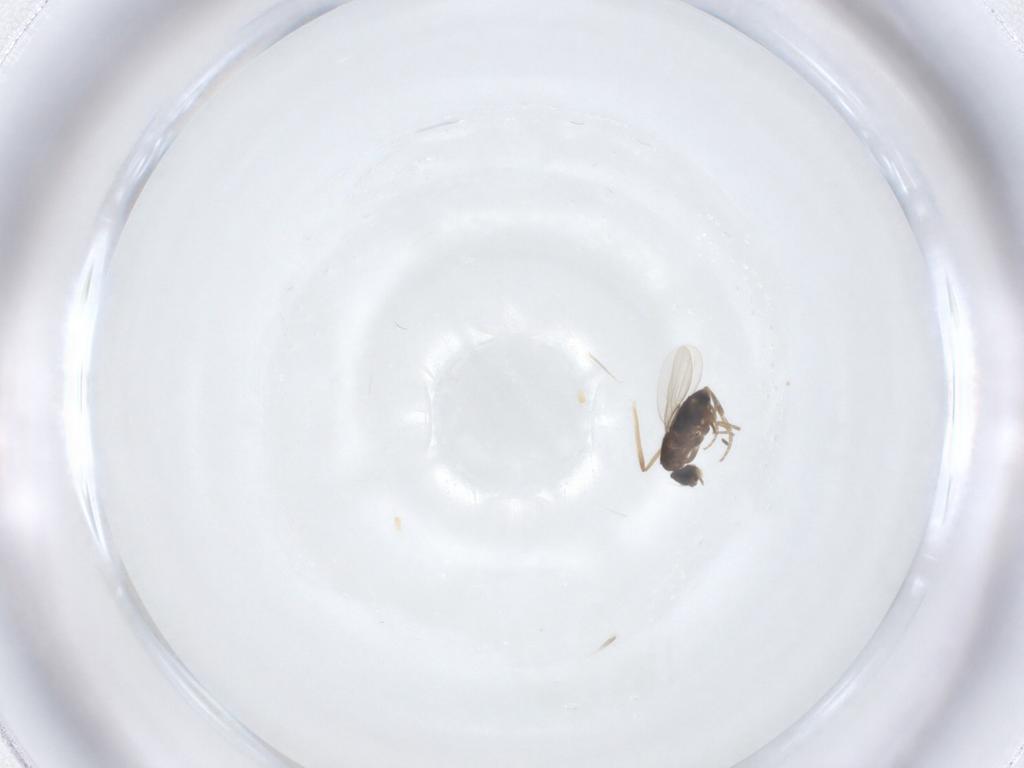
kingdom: Animalia
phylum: Arthropoda
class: Insecta
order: Diptera
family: Phoridae
